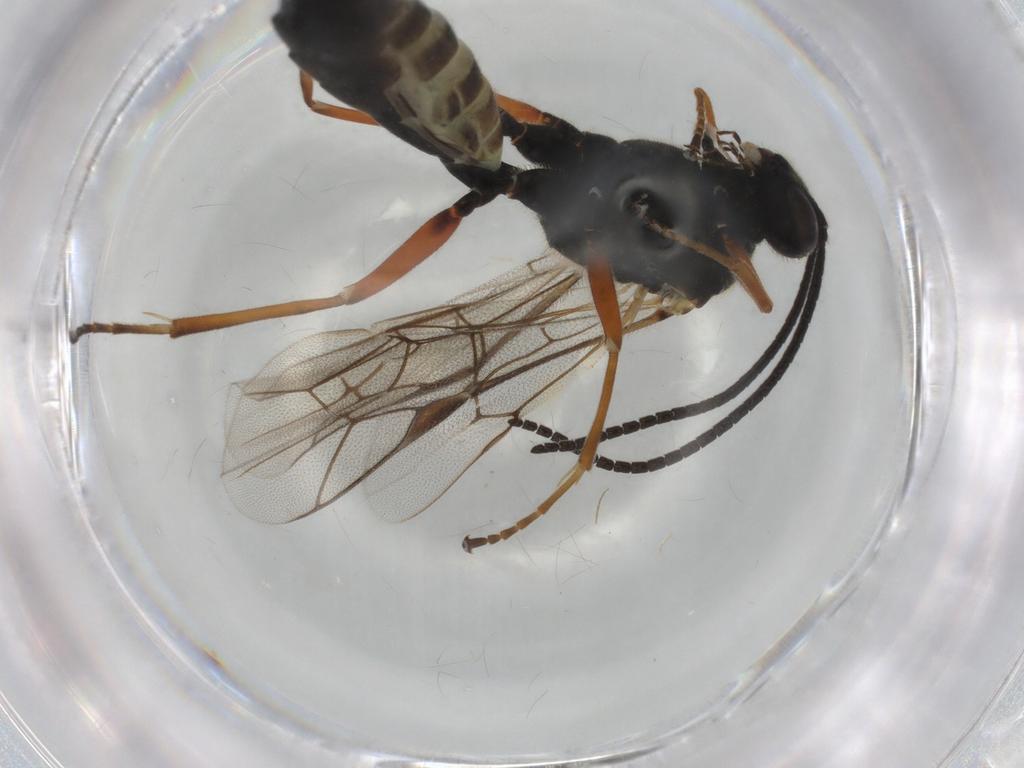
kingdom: Animalia
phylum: Arthropoda
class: Insecta
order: Hymenoptera
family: Ichneumonidae
